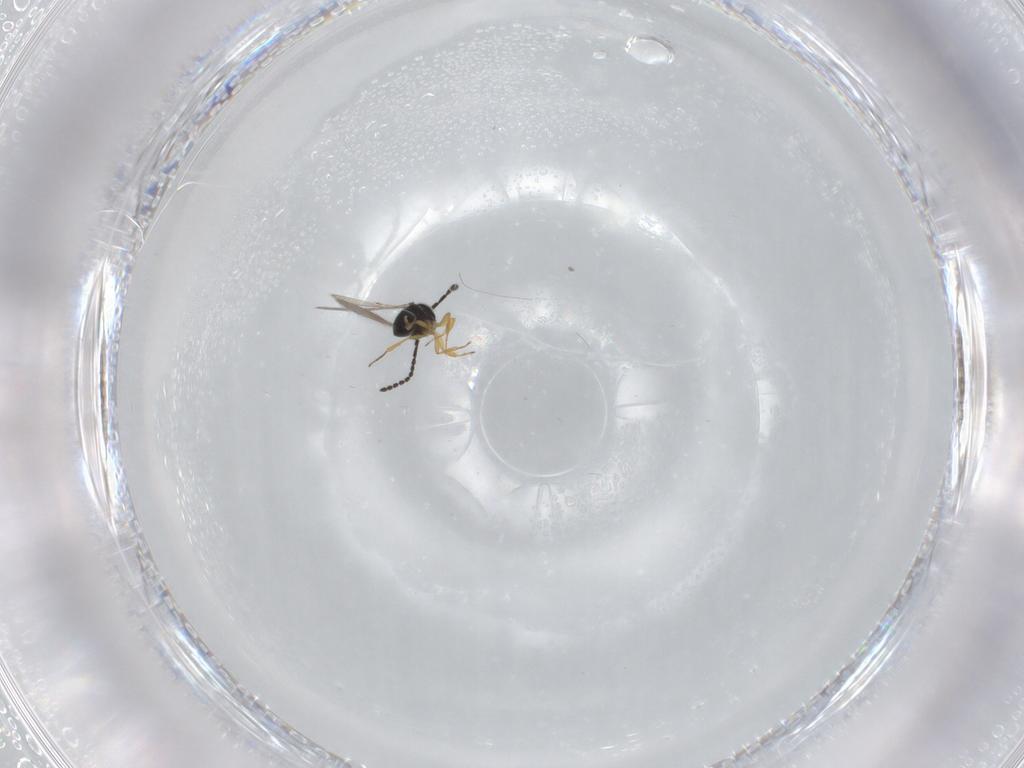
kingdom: Animalia
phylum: Arthropoda
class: Insecta
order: Hymenoptera
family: Scelionidae
